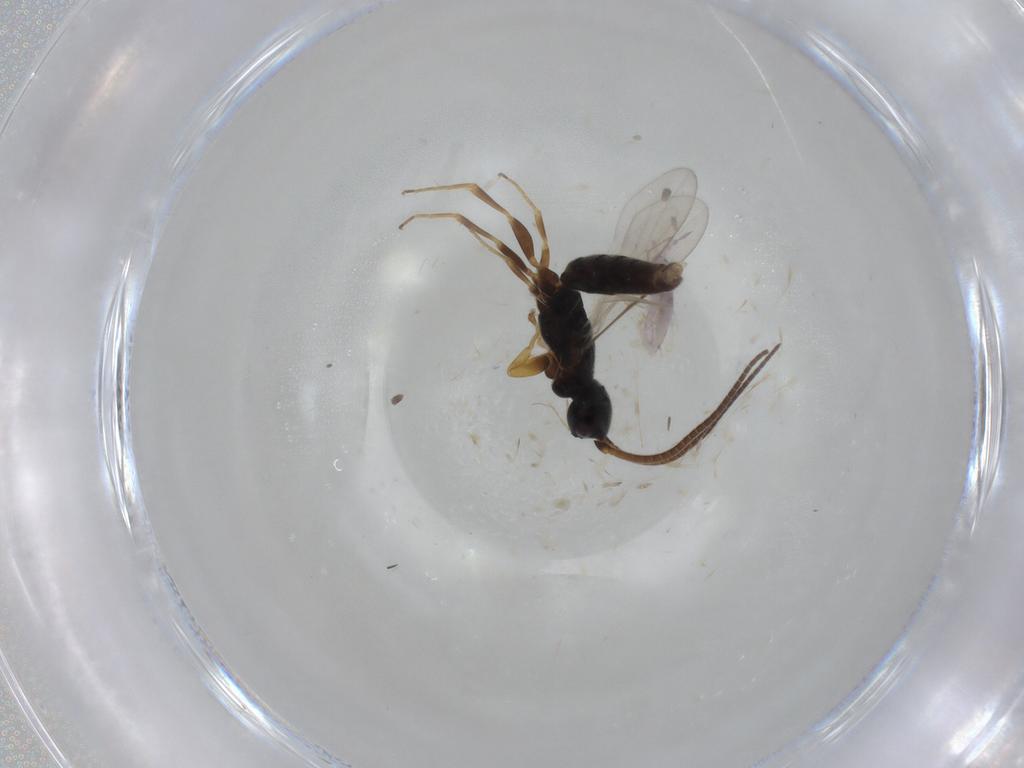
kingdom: Animalia
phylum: Arthropoda
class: Insecta
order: Hymenoptera
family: Sclerogibbidae
